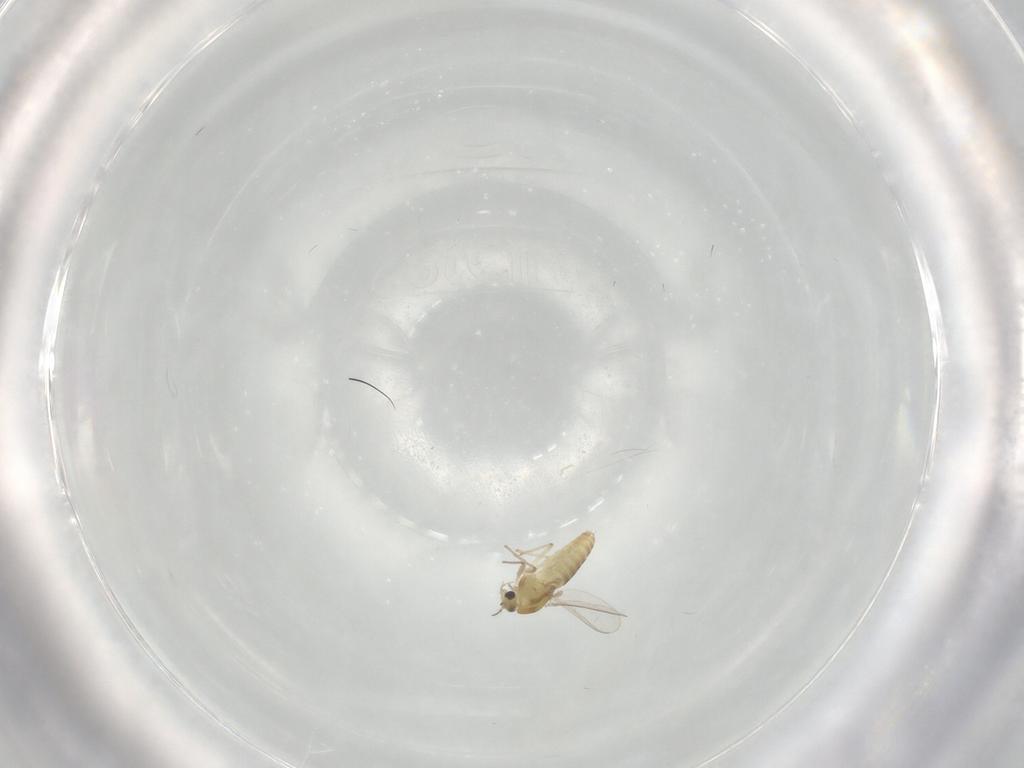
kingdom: Animalia
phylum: Arthropoda
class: Insecta
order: Diptera
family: Chironomidae
